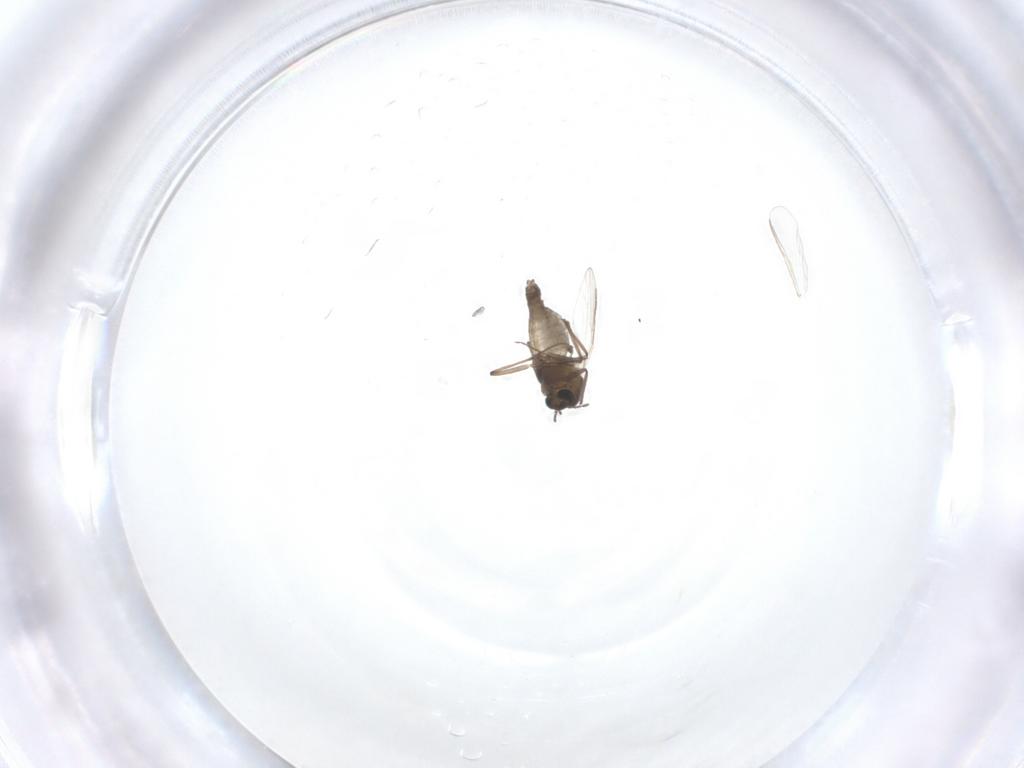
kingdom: Animalia
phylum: Arthropoda
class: Insecta
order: Diptera
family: Chironomidae
